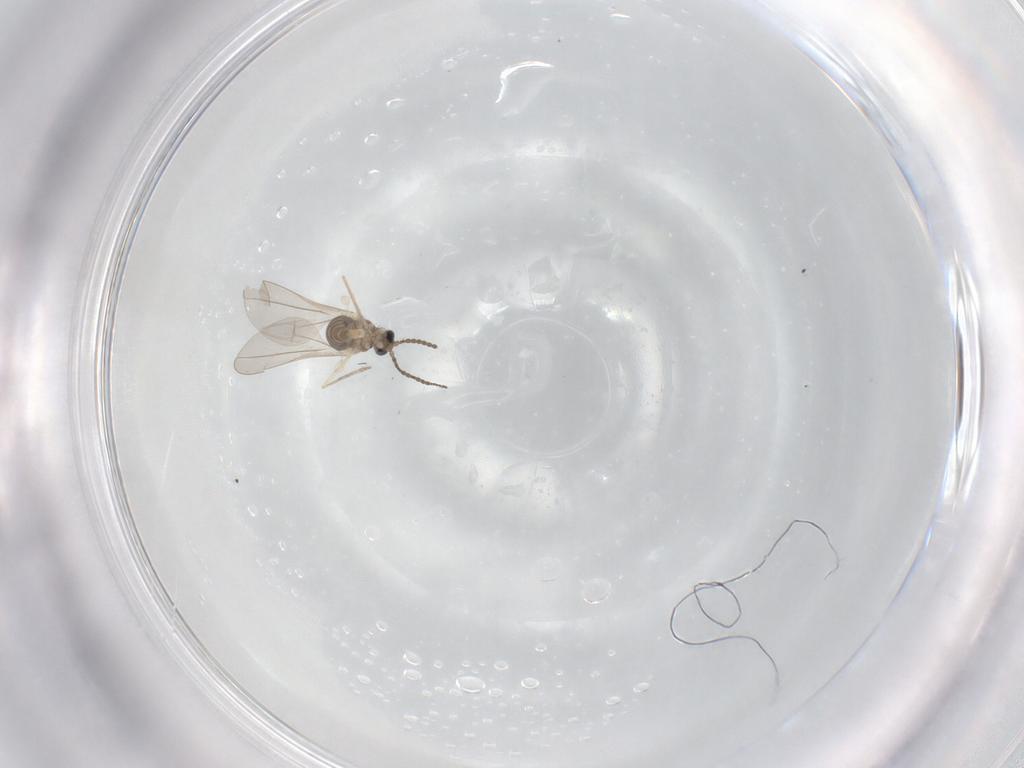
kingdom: Animalia
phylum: Arthropoda
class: Insecta
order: Diptera
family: Cecidomyiidae
